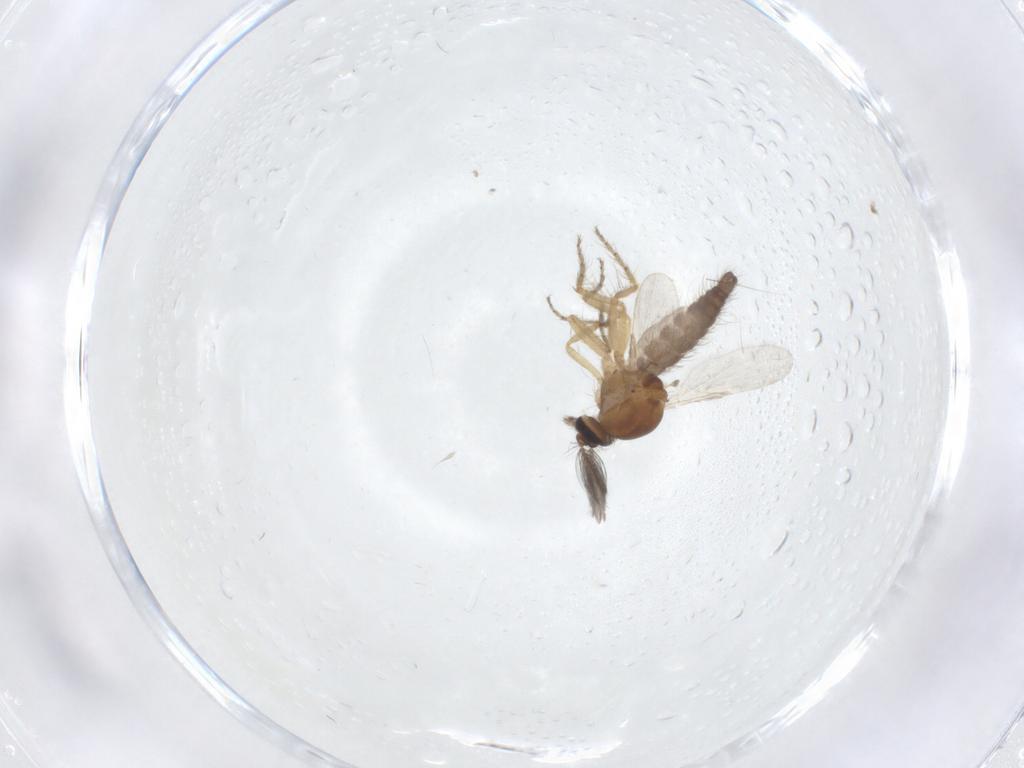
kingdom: Animalia
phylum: Arthropoda
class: Insecta
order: Diptera
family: Ceratopogonidae
